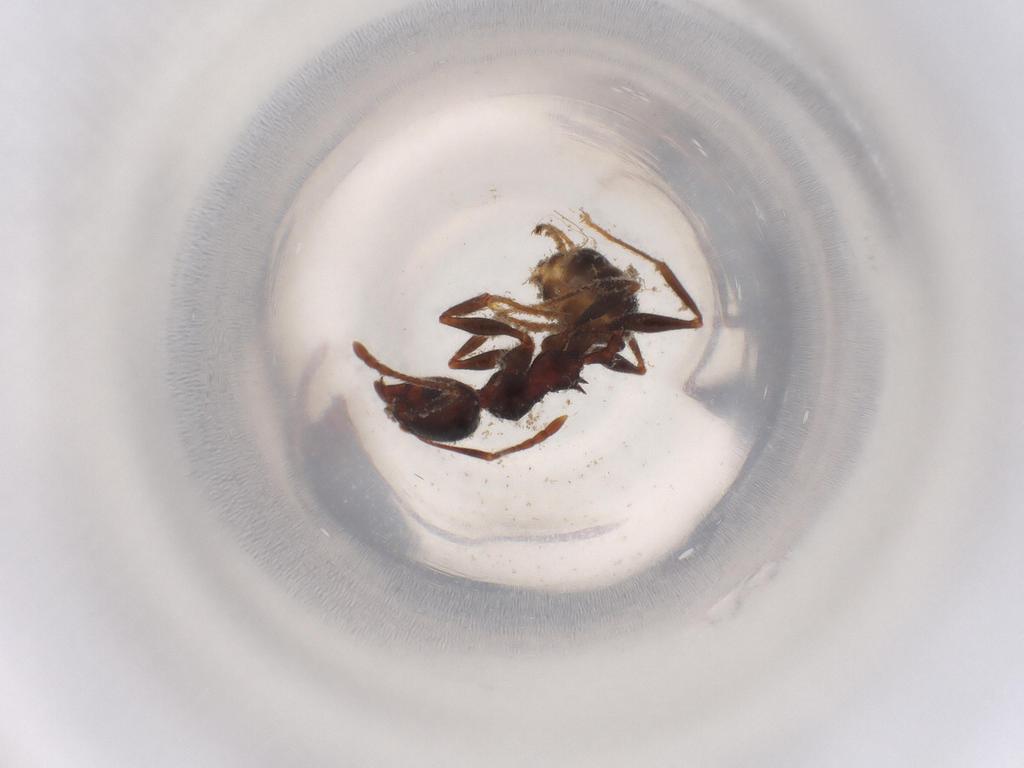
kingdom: Animalia
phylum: Arthropoda
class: Insecta
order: Hymenoptera
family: Formicidae
